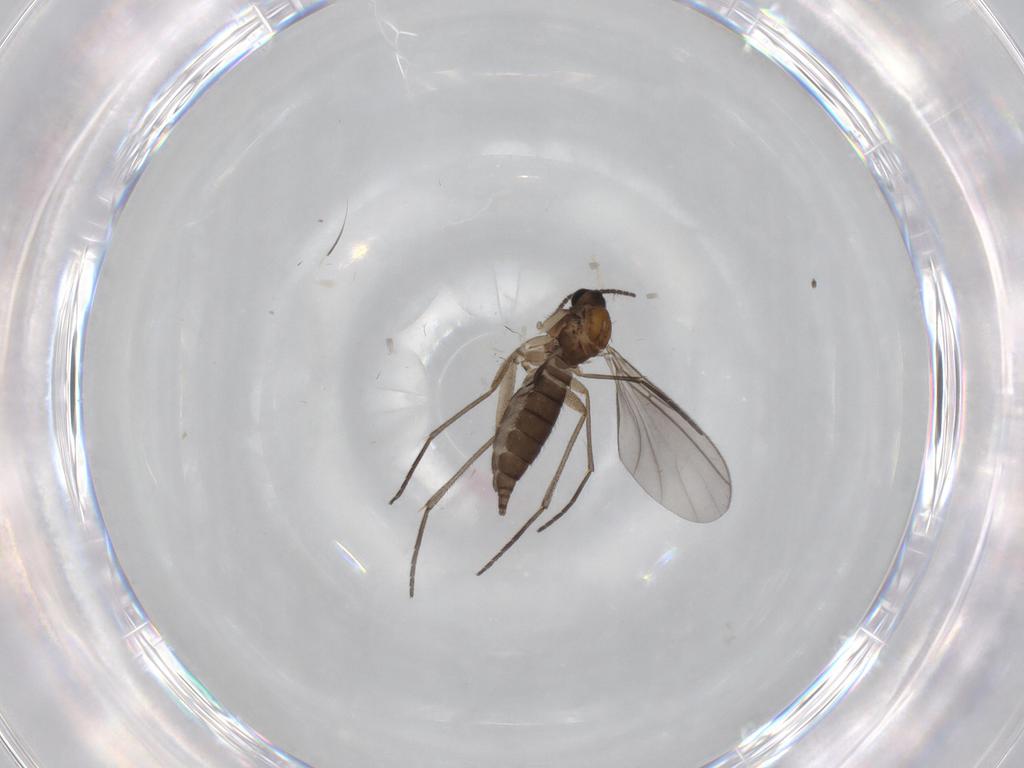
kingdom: Animalia
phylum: Arthropoda
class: Insecta
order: Diptera
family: Sciaridae
